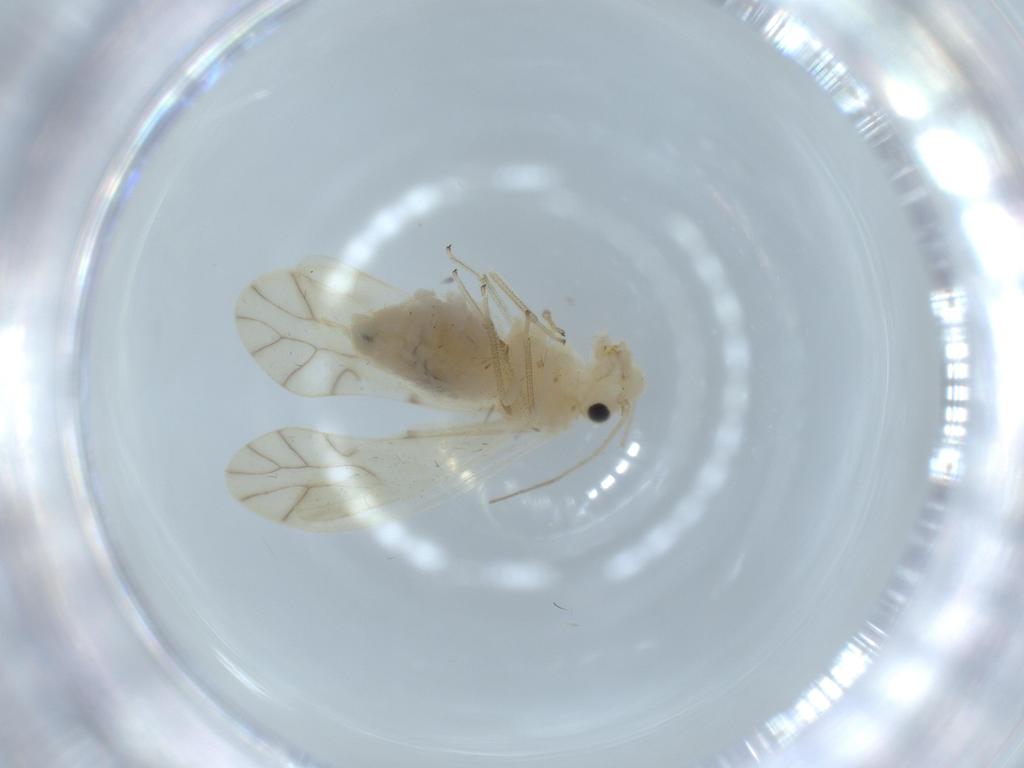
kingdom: Animalia
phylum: Arthropoda
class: Insecta
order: Psocodea
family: Caeciliusidae
